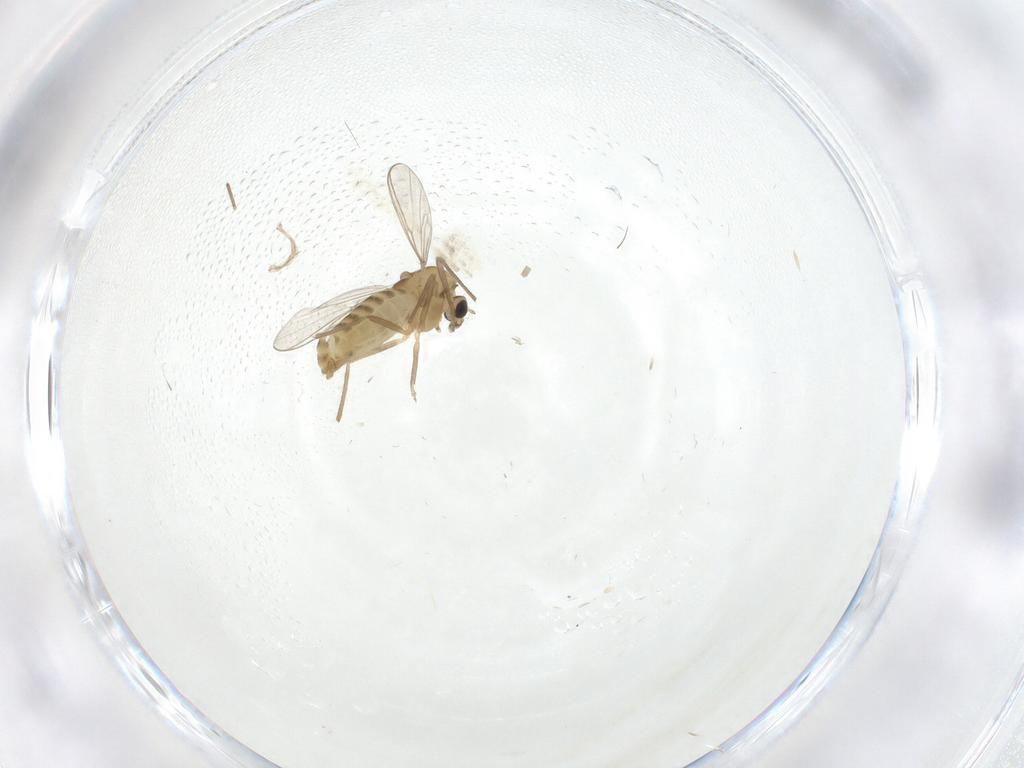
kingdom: Animalia
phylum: Arthropoda
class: Insecta
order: Diptera
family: Chironomidae
